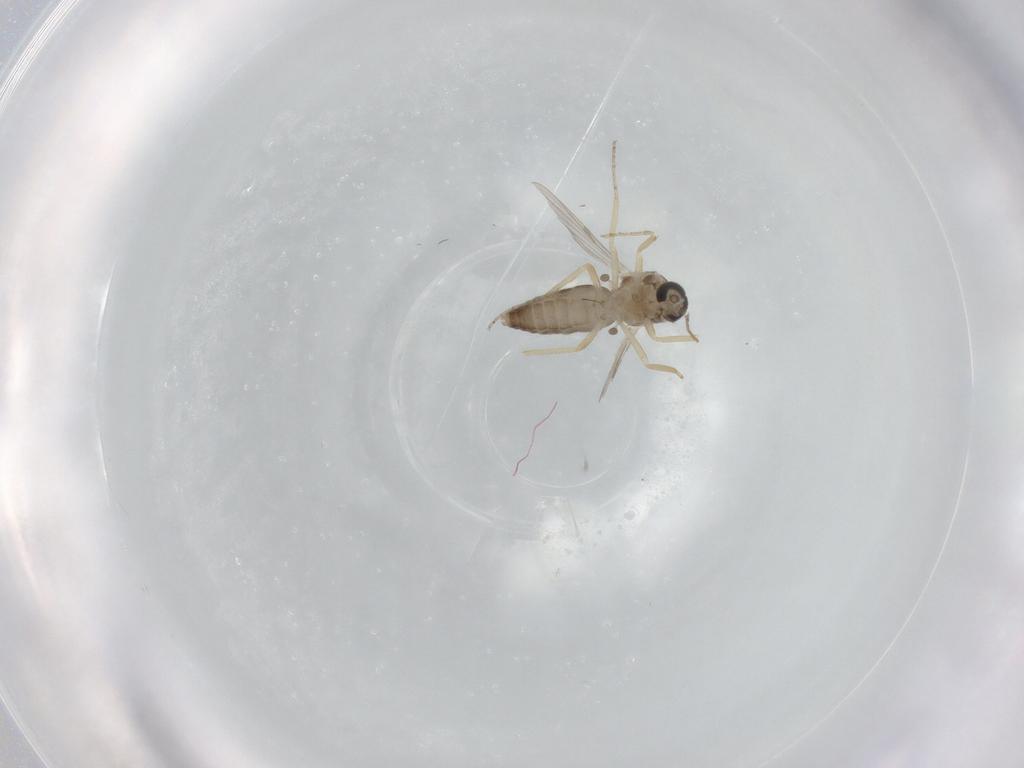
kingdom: Animalia
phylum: Arthropoda
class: Insecta
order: Diptera
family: Ceratopogonidae
